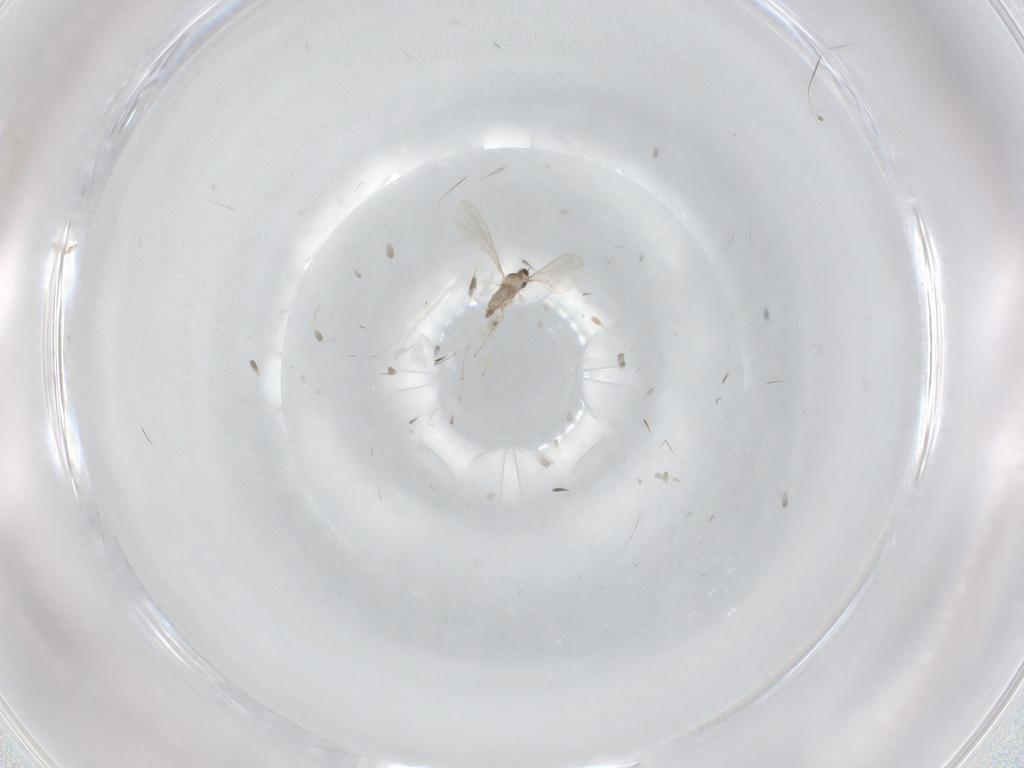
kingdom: Animalia
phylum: Arthropoda
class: Insecta
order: Diptera
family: Cecidomyiidae
